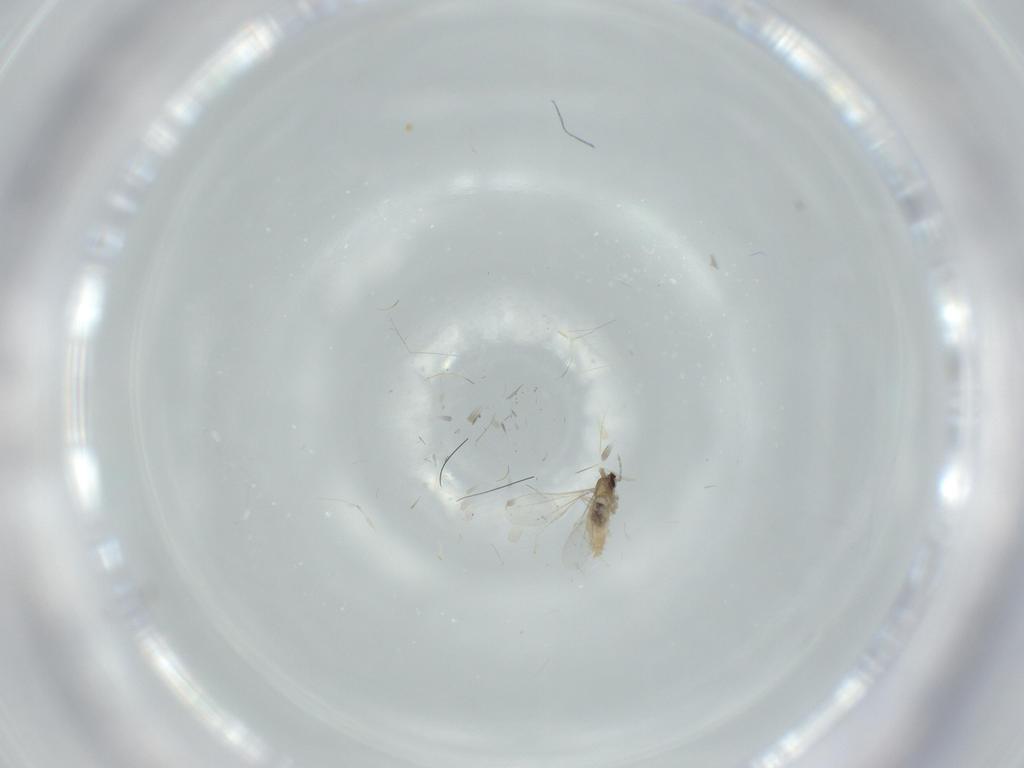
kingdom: Animalia
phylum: Arthropoda
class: Insecta
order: Diptera
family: Cecidomyiidae
